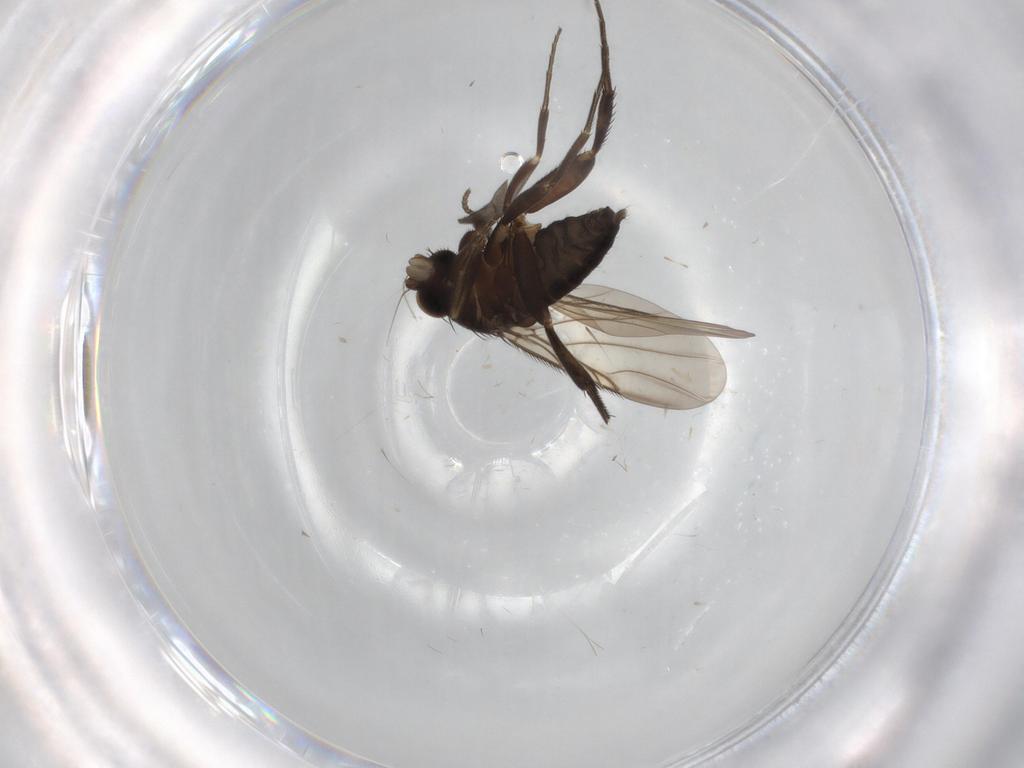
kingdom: Animalia
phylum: Arthropoda
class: Insecta
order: Diptera
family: Phoridae
